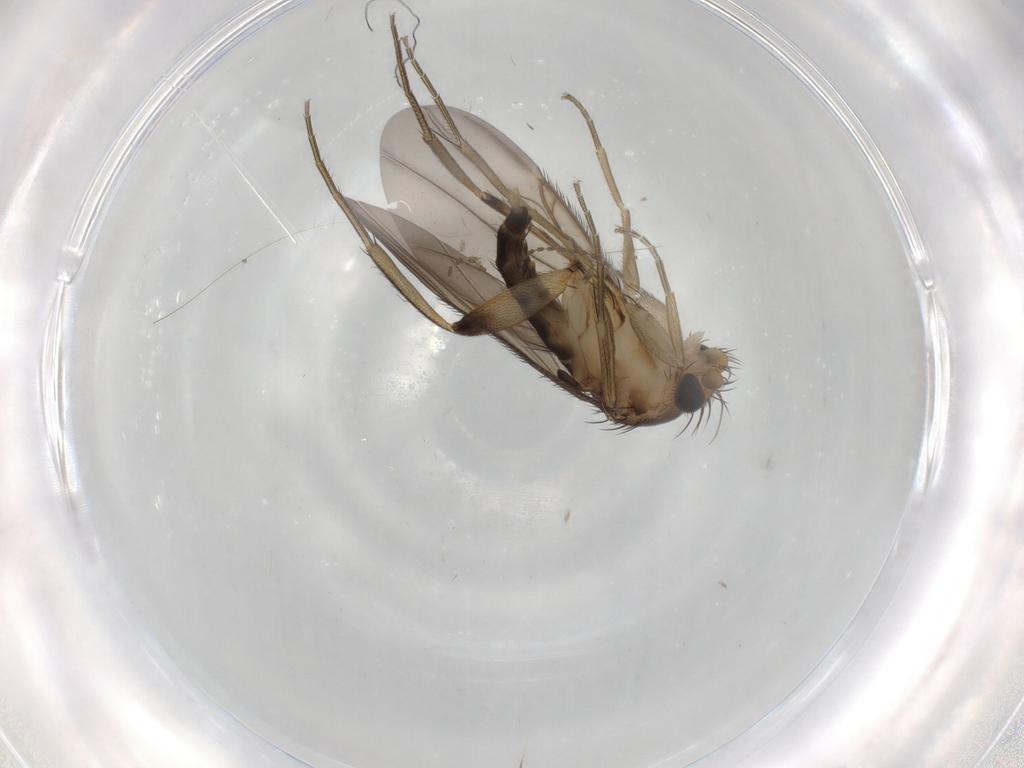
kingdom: Animalia
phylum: Arthropoda
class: Insecta
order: Diptera
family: Phoridae
